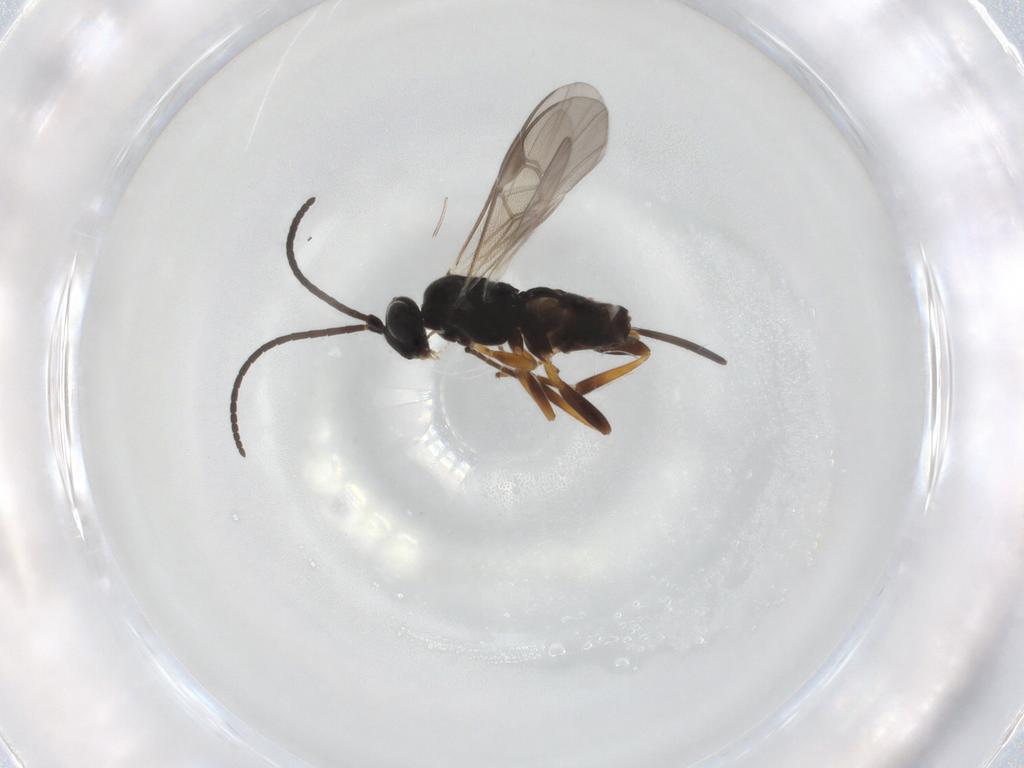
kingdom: Animalia
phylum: Arthropoda
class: Insecta
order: Hymenoptera
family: Braconidae
